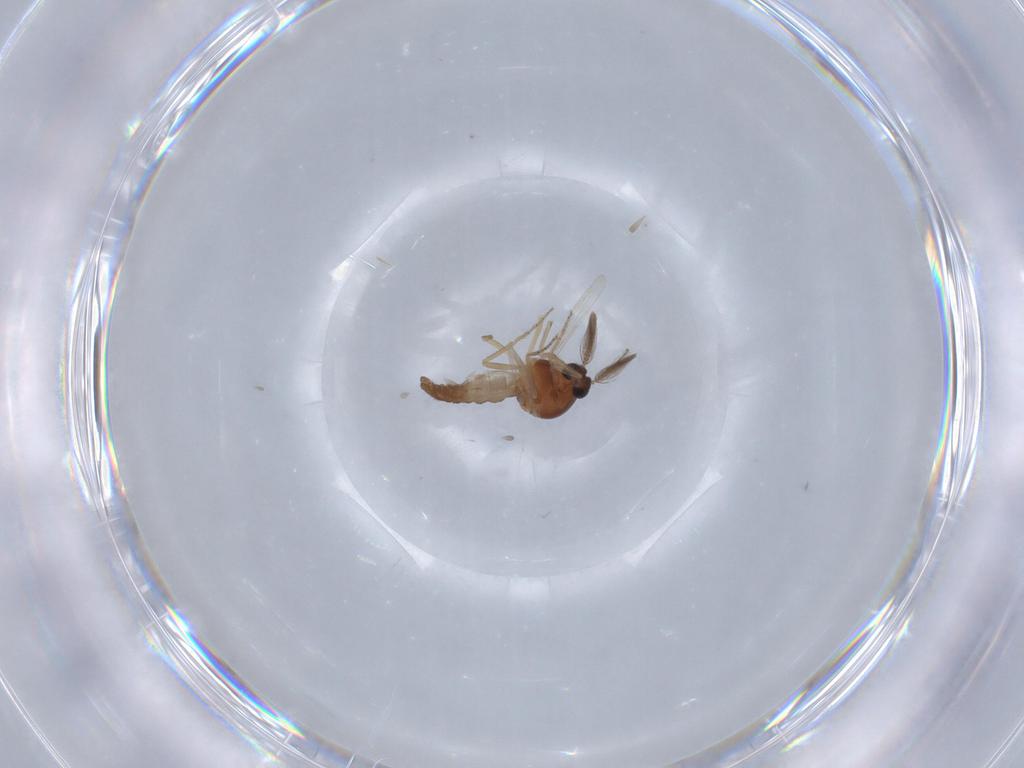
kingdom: Animalia
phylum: Arthropoda
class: Insecta
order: Diptera
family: Ceratopogonidae
